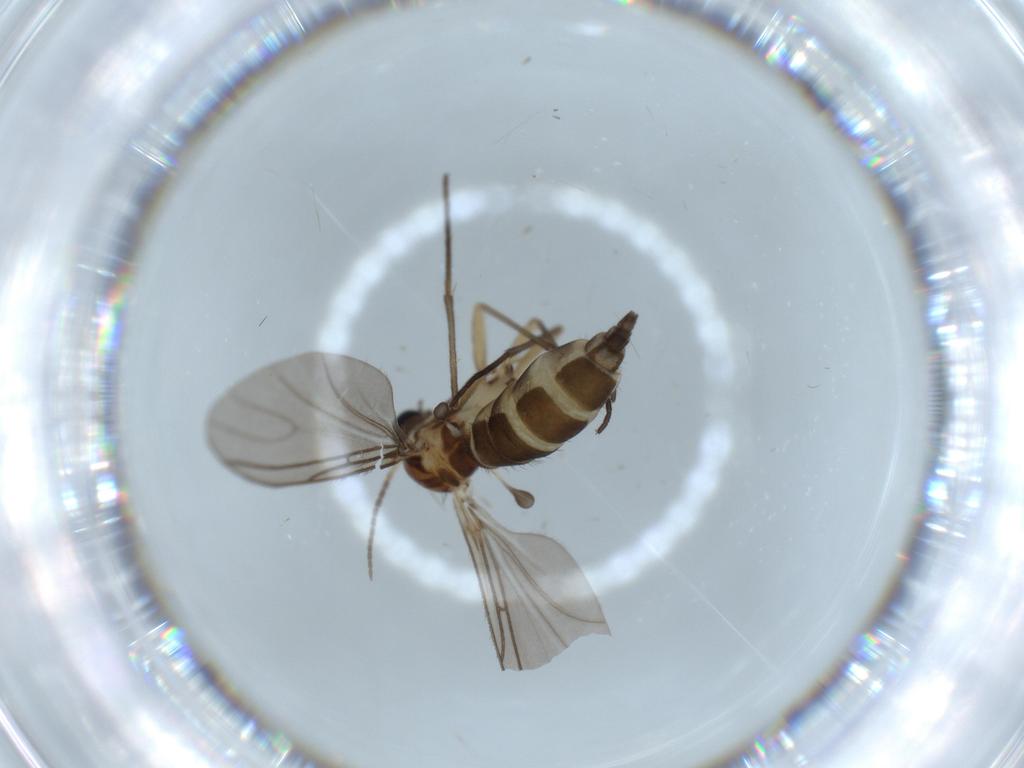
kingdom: Animalia
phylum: Arthropoda
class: Insecta
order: Diptera
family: Sciaridae
